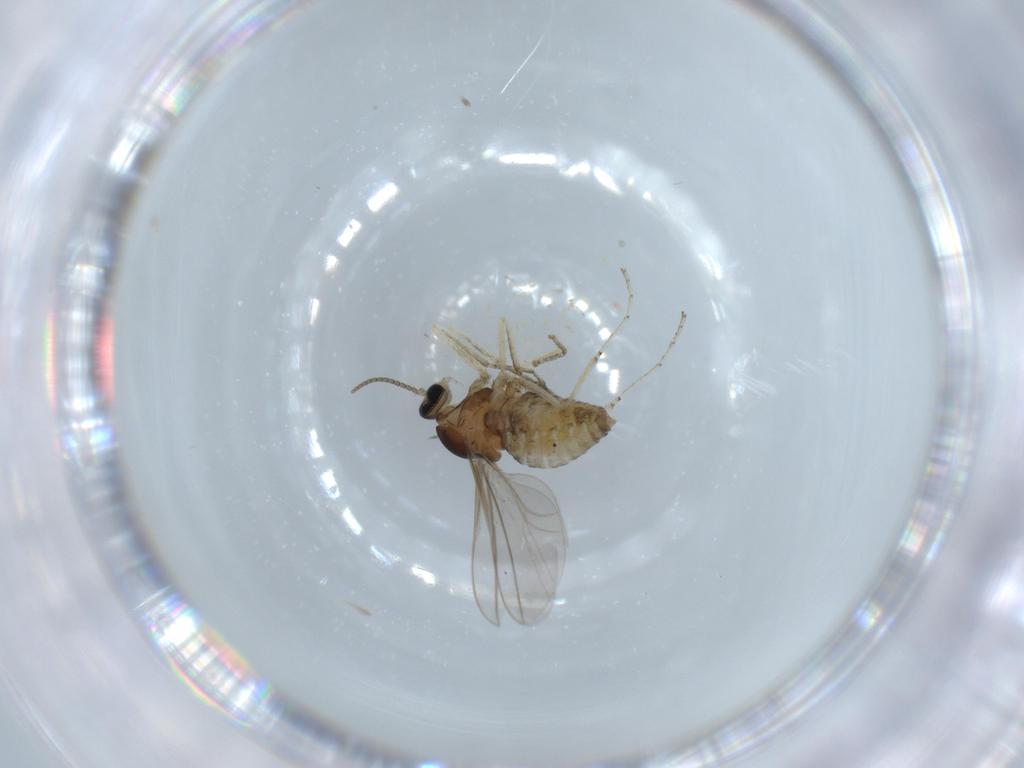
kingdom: Animalia
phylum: Arthropoda
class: Insecta
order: Diptera
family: Cecidomyiidae
